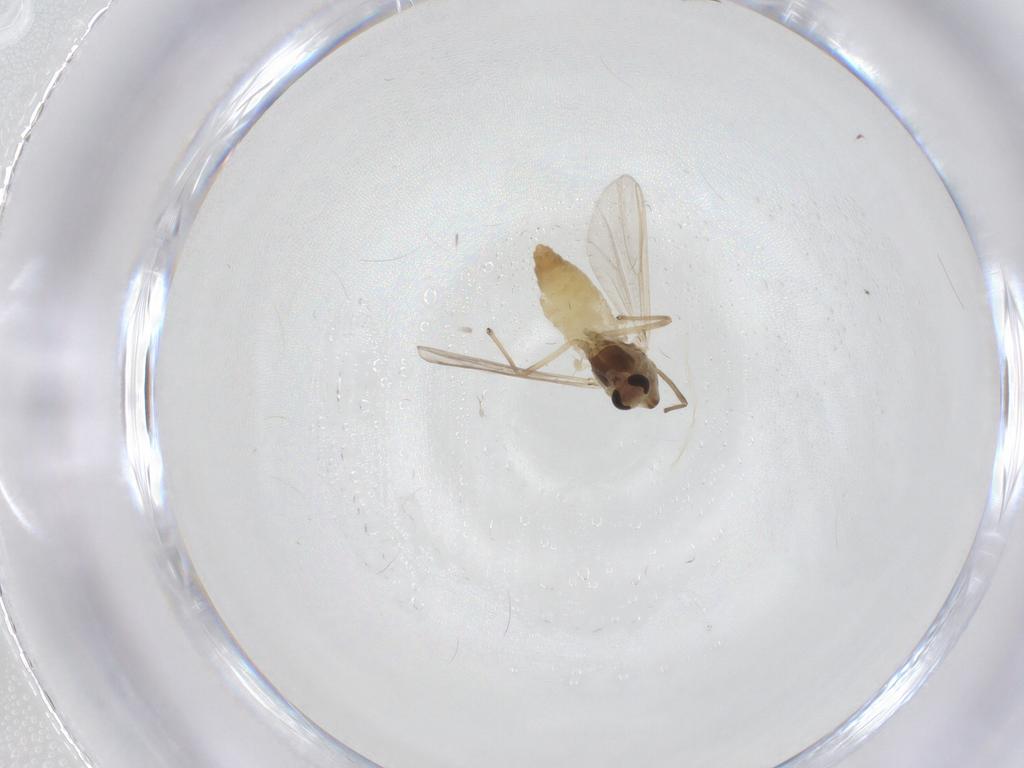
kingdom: Animalia
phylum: Arthropoda
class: Insecta
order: Diptera
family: Chironomidae
